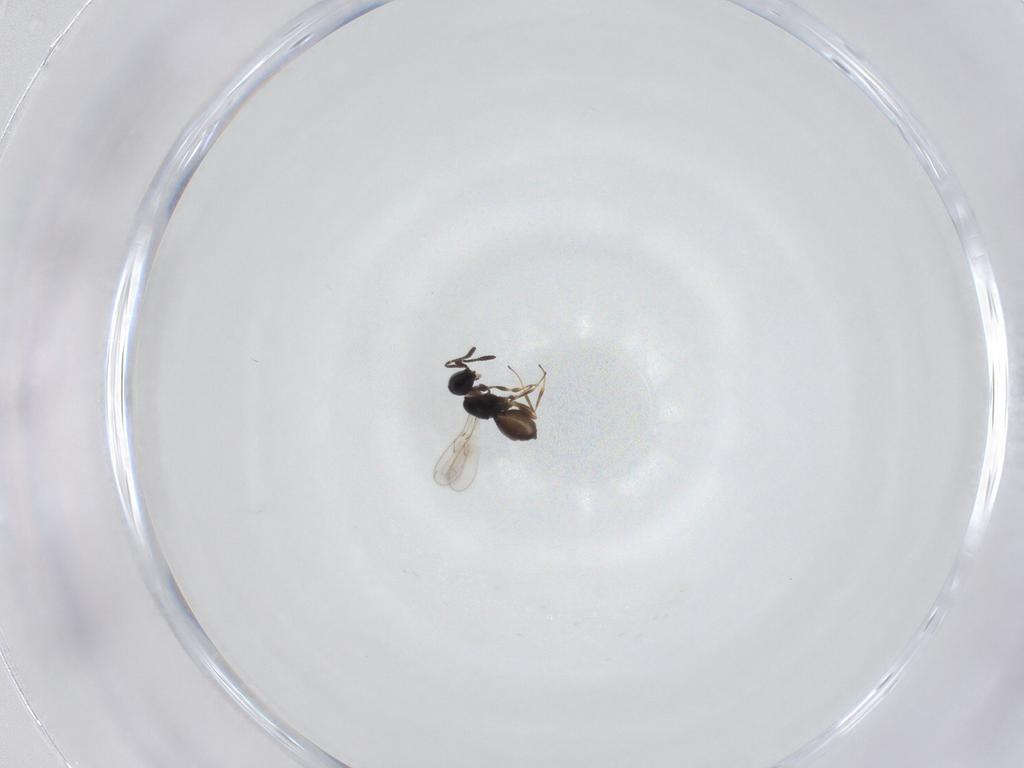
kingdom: Animalia
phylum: Arthropoda
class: Insecta
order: Hymenoptera
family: Scelionidae
